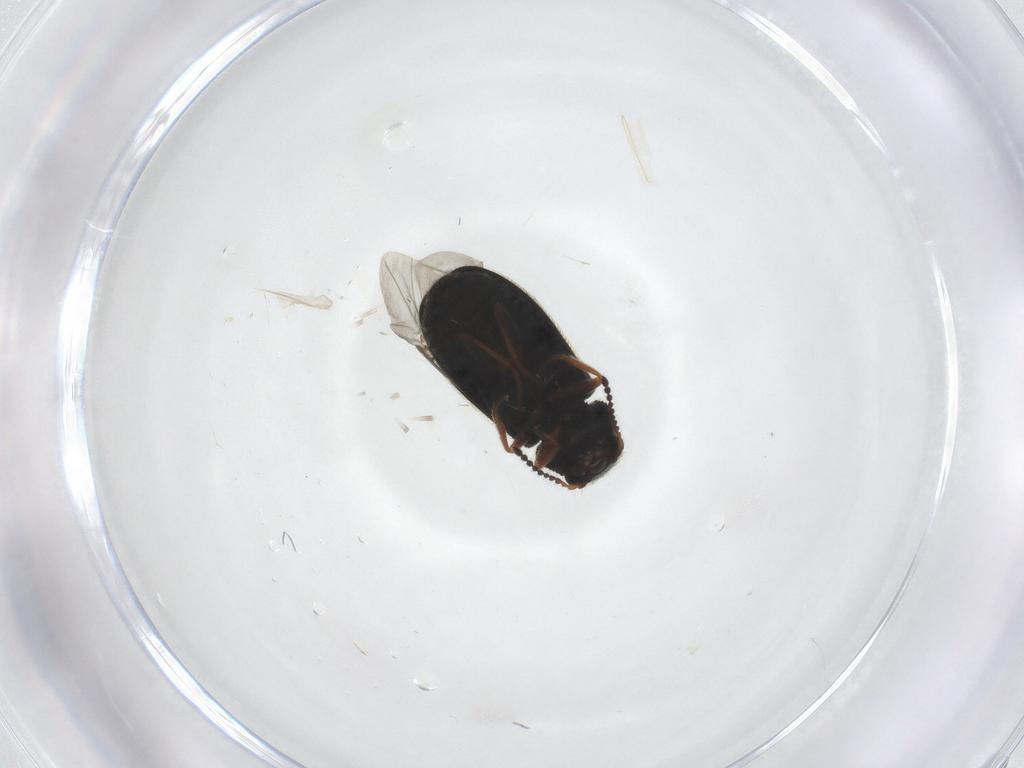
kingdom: Animalia
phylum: Arthropoda
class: Insecta
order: Coleoptera
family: Melyridae
